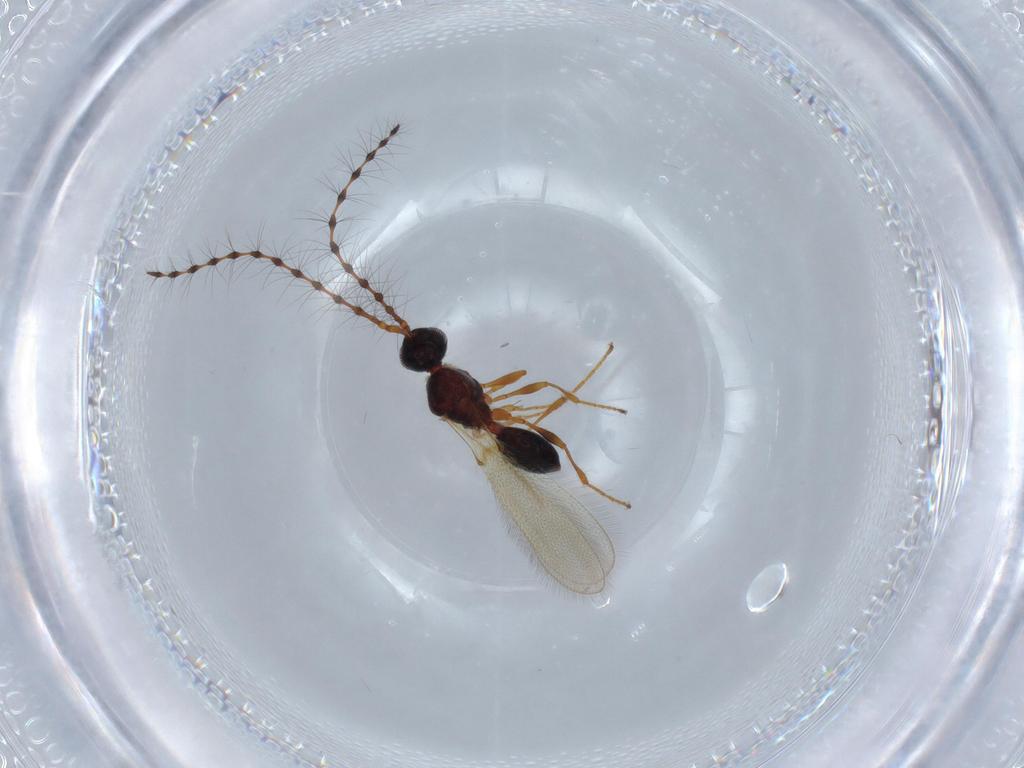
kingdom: Animalia
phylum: Arthropoda
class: Insecta
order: Hymenoptera
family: Diapriidae
